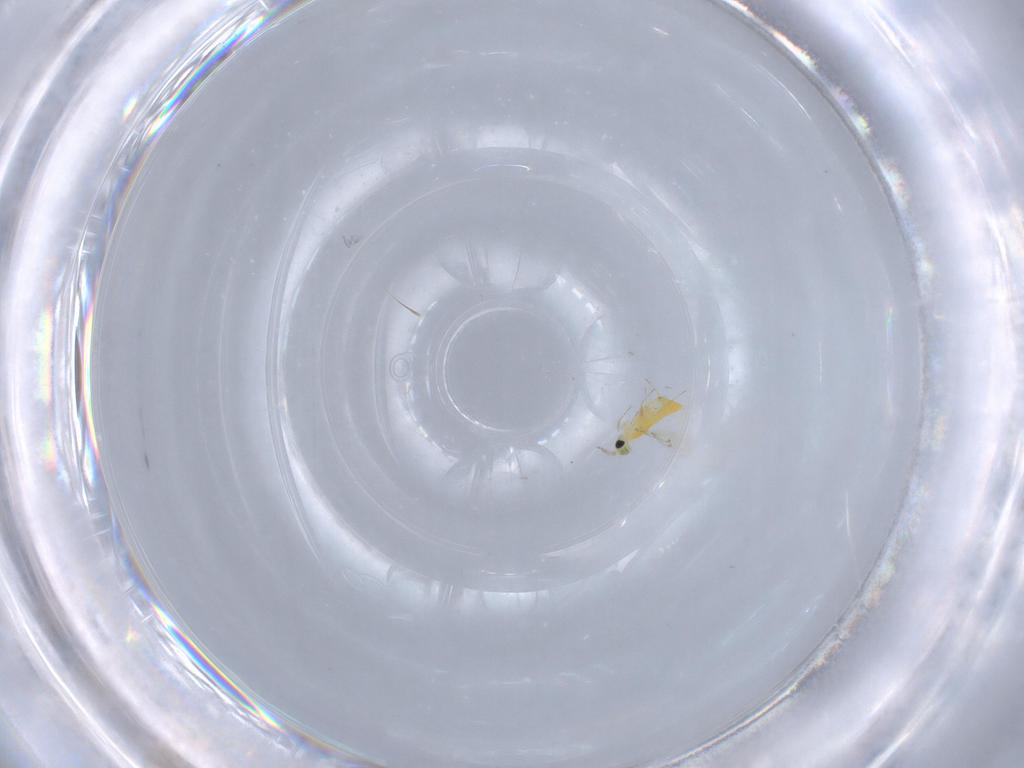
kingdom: Animalia
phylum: Arthropoda
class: Insecta
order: Hymenoptera
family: Trichogrammatidae
